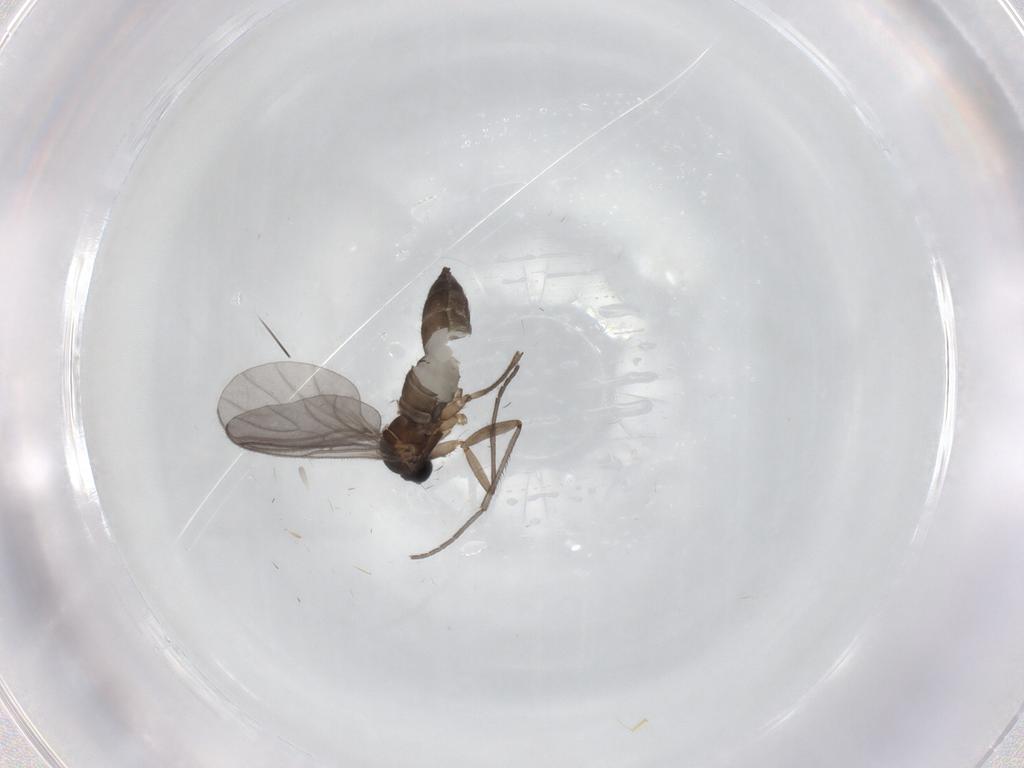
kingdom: Animalia
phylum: Arthropoda
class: Insecta
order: Diptera
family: Sciaridae
